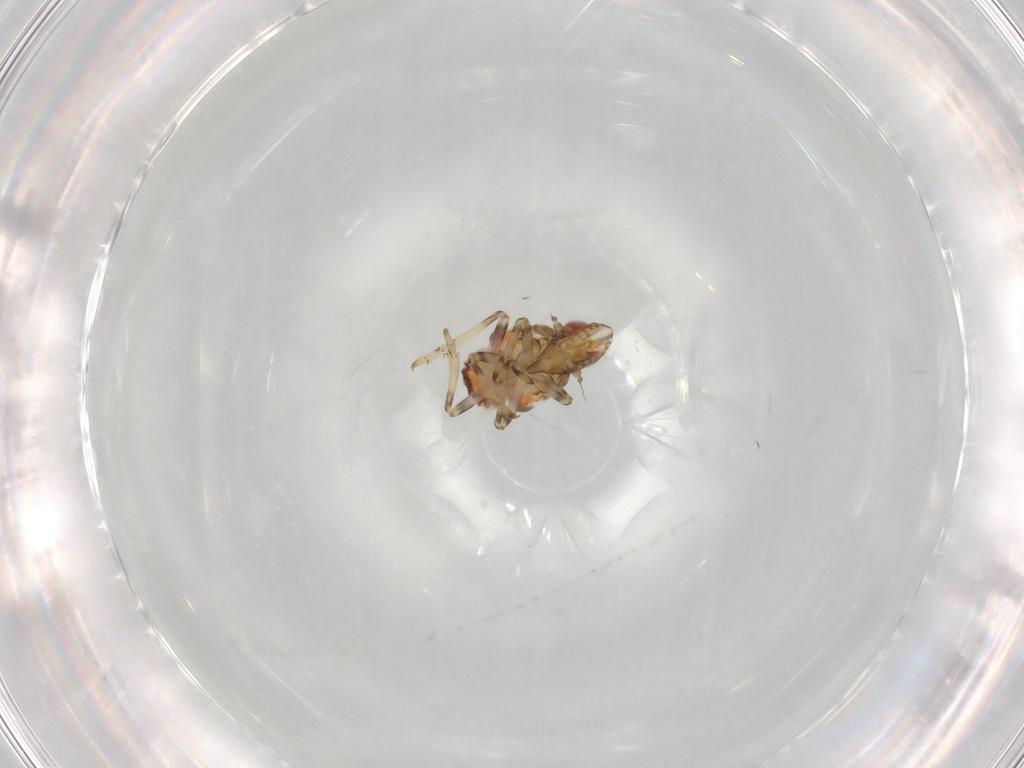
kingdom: Animalia
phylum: Arthropoda
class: Insecta
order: Hemiptera
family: Tropiduchidae
